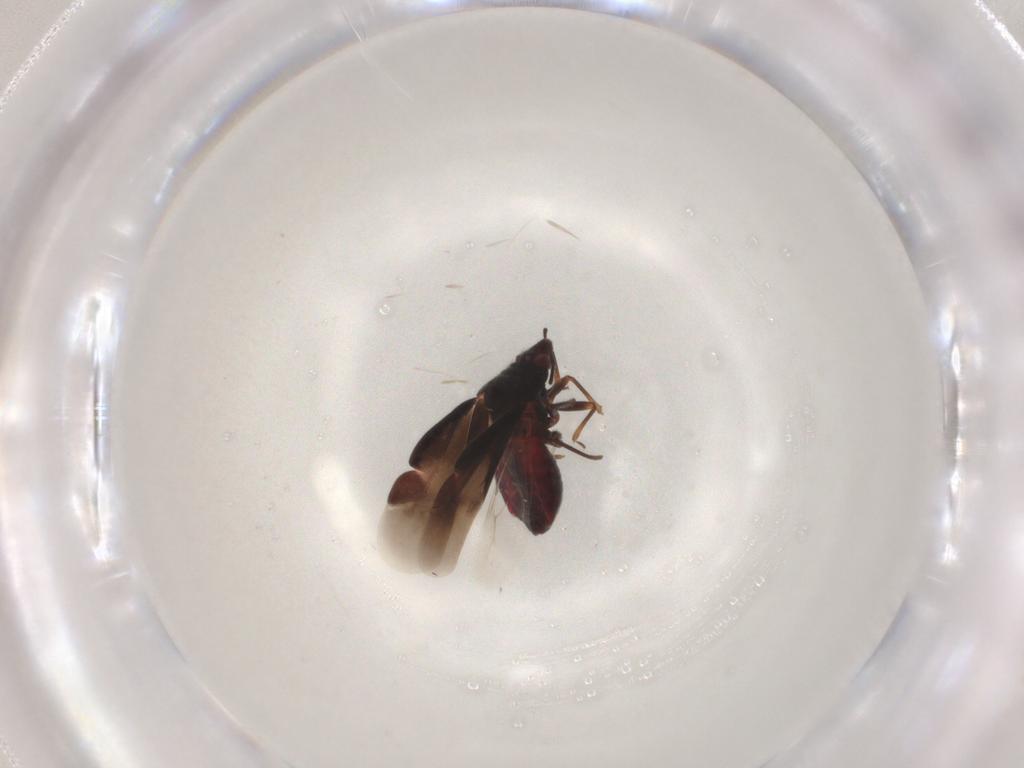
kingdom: Animalia
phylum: Arthropoda
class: Insecta
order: Hemiptera
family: Aleyrodidae
